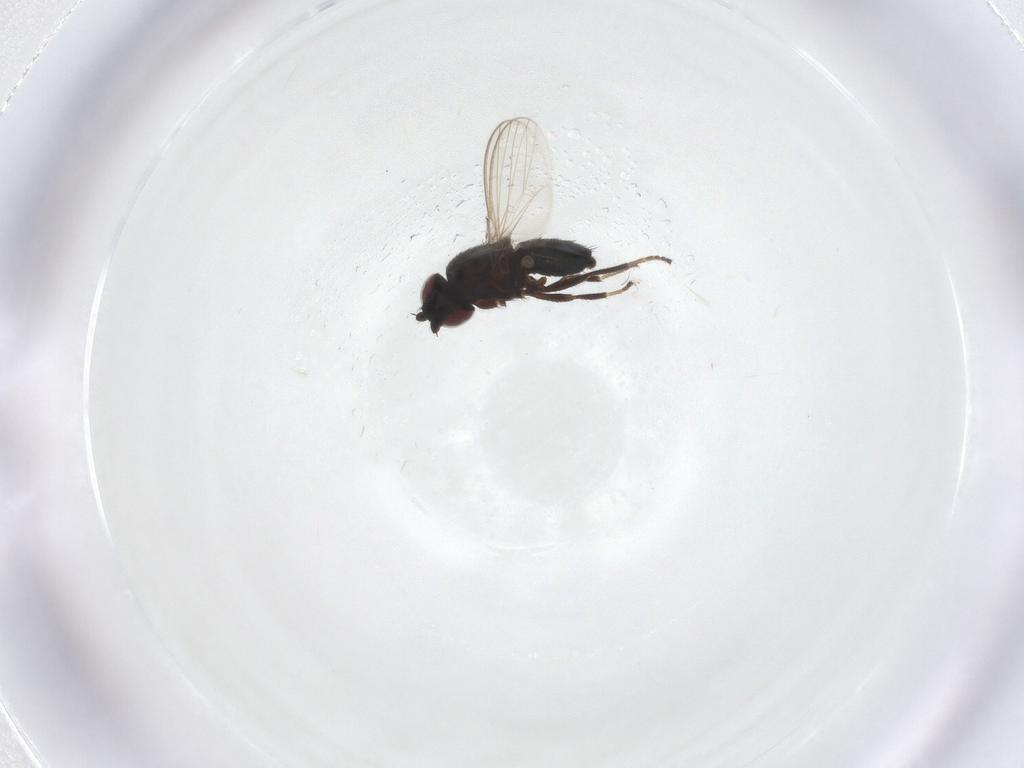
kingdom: Animalia
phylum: Arthropoda
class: Insecta
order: Diptera
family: Milichiidae
